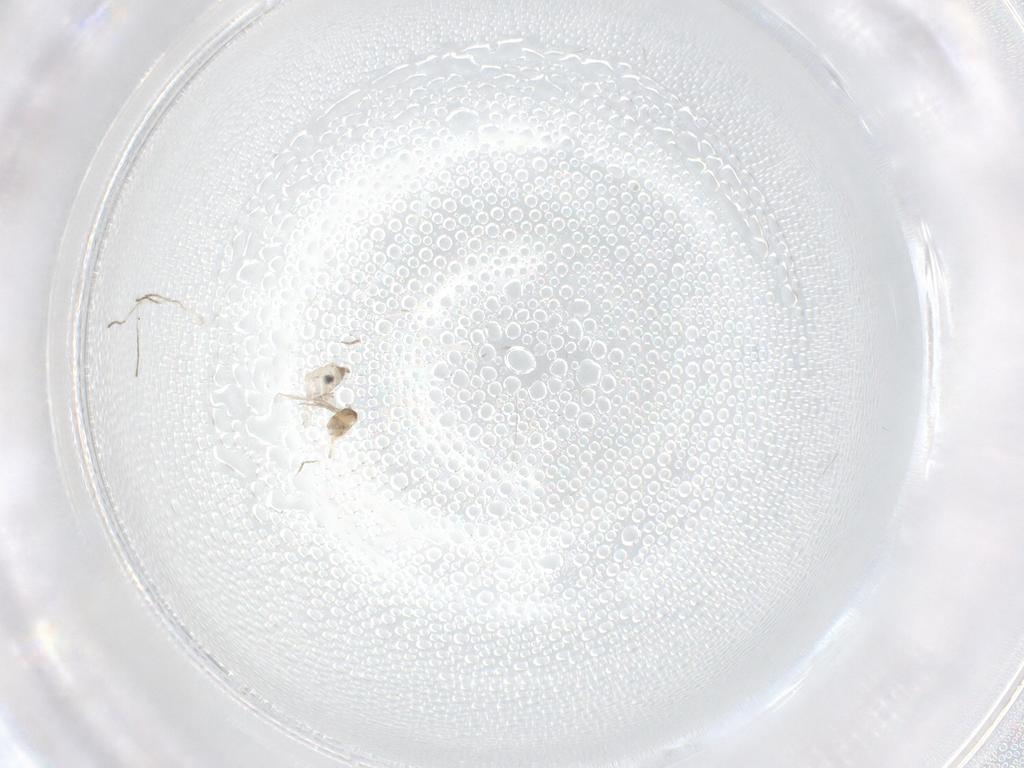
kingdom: Animalia
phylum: Arthropoda
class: Insecta
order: Diptera
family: Cecidomyiidae
